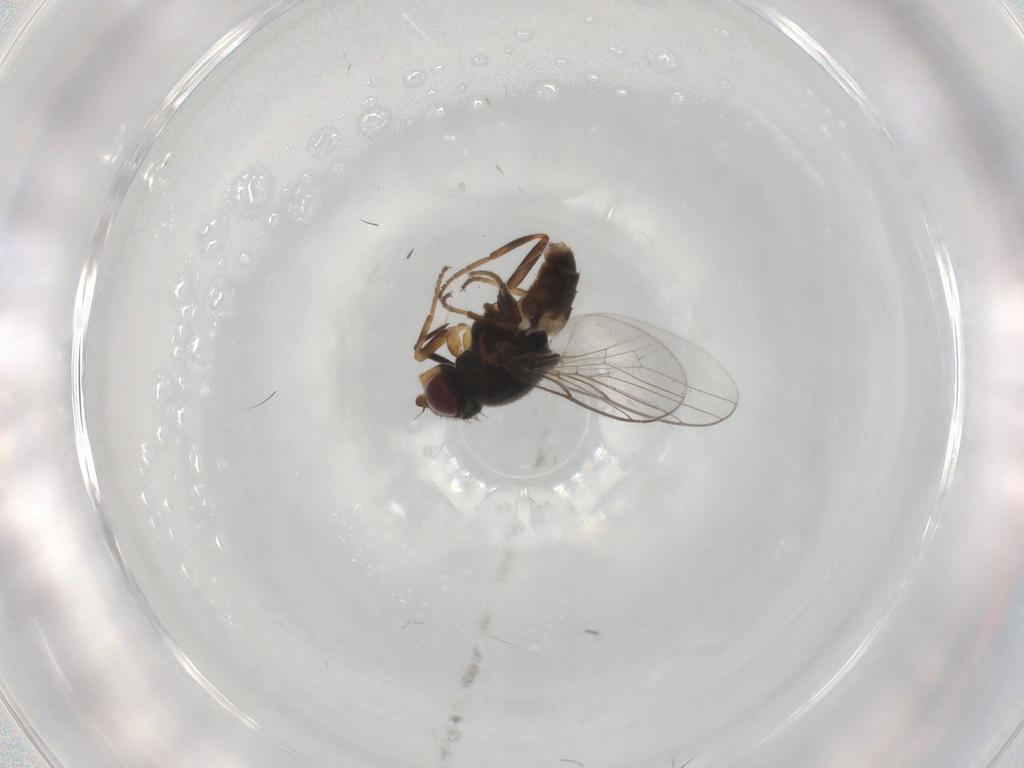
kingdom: Animalia
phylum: Arthropoda
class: Insecta
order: Diptera
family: Chloropidae
